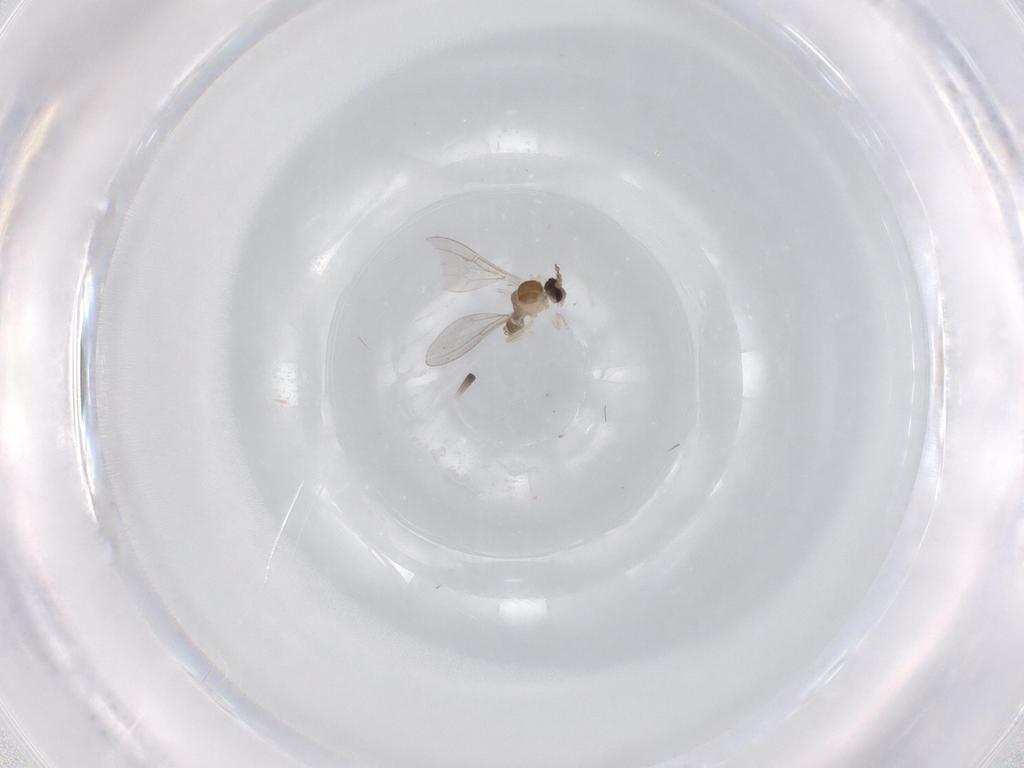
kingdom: Animalia
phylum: Arthropoda
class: Insecta
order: Diptera
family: Cecidomyiidae
